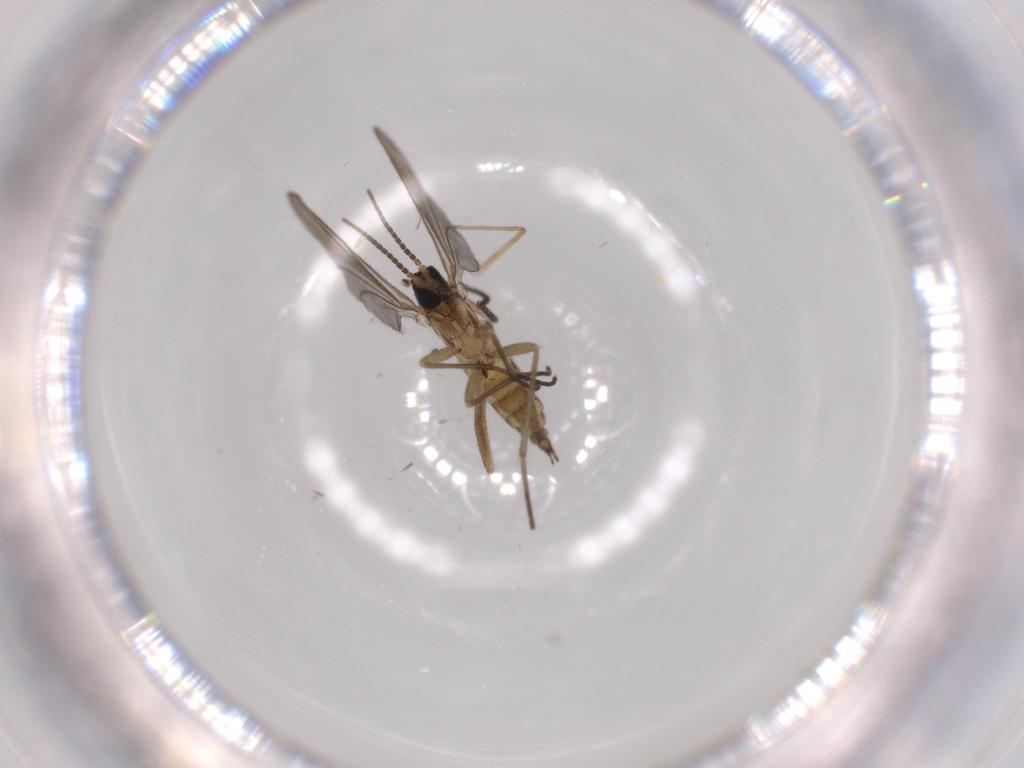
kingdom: Animalia
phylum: Arthropoda
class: Insecta
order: Diptera
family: Sciaridae
